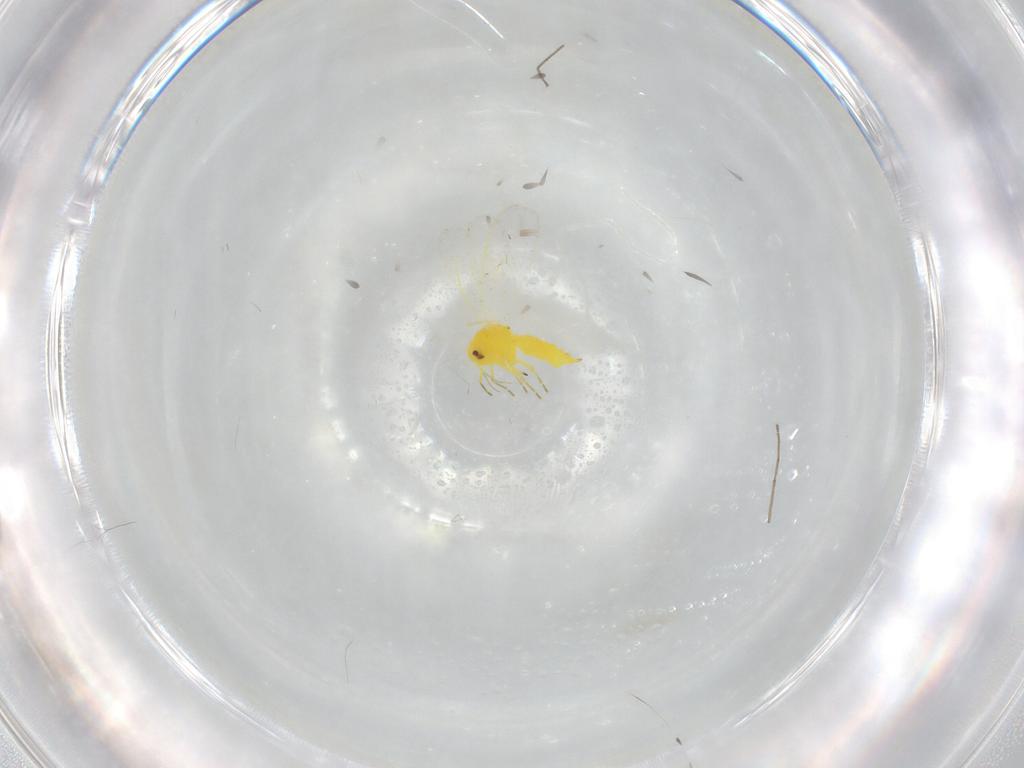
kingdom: Animalia
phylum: Arthropoda
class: Insecta
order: Hemiptera
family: Aleyrodidae
